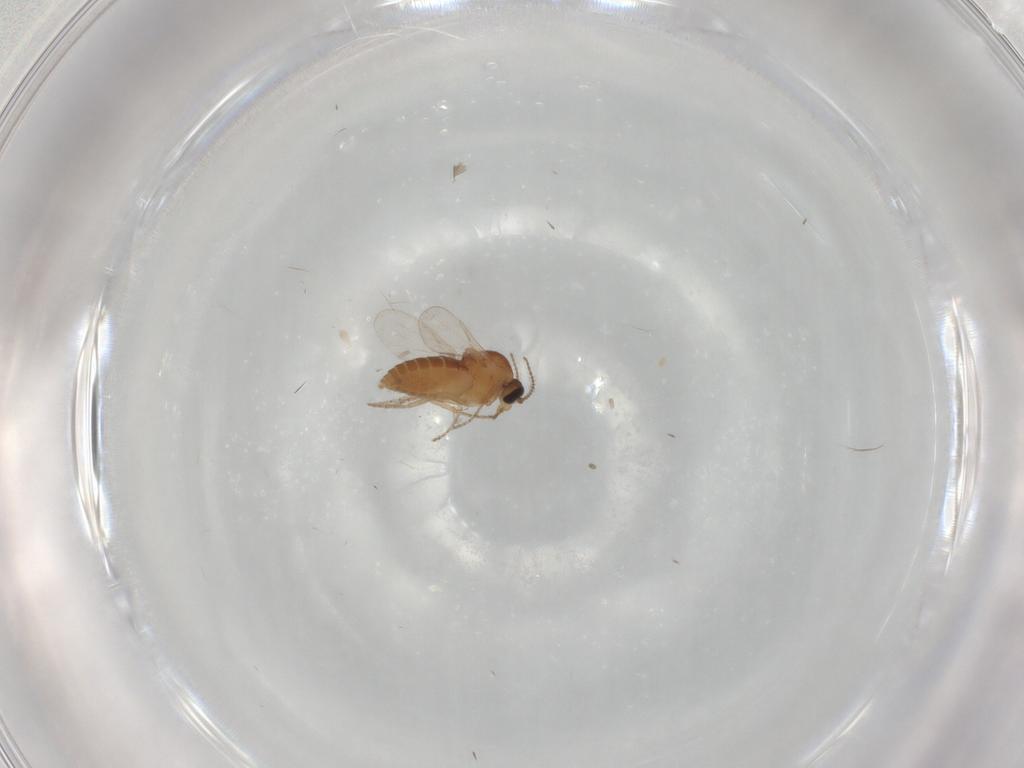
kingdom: Animalia
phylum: Arthropoda
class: Insecta
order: Diptera
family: Ceratopogonidae
